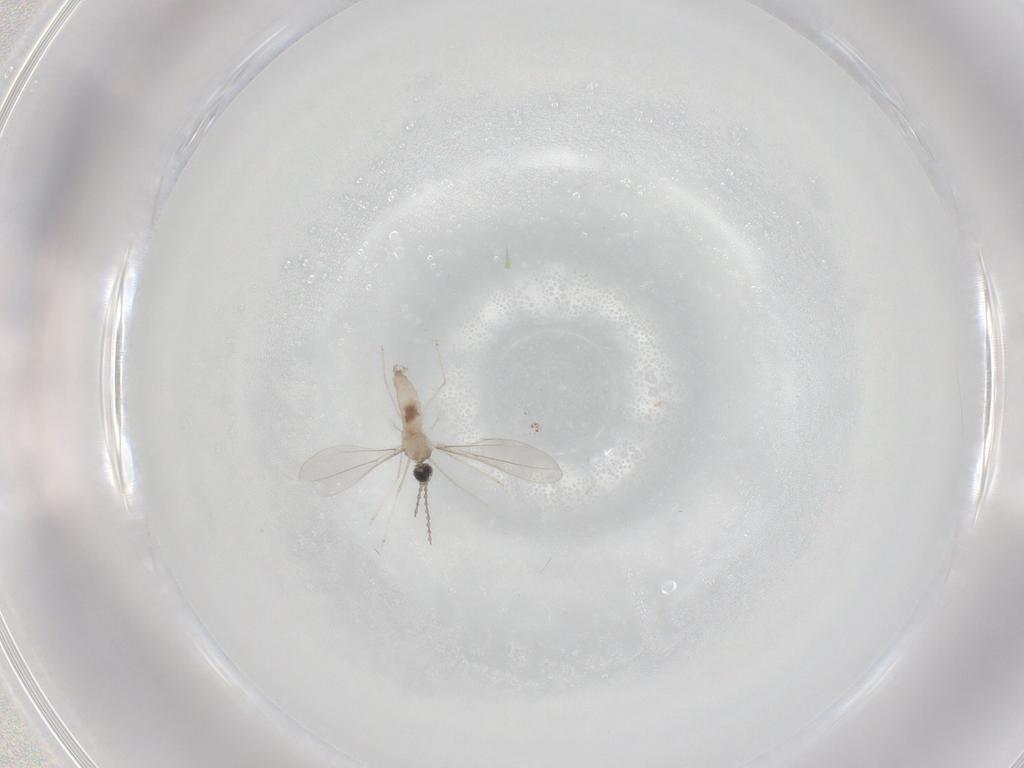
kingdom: Animalia
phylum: Arthropoda
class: Insecta
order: Diptera
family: Cecidomyiidae
